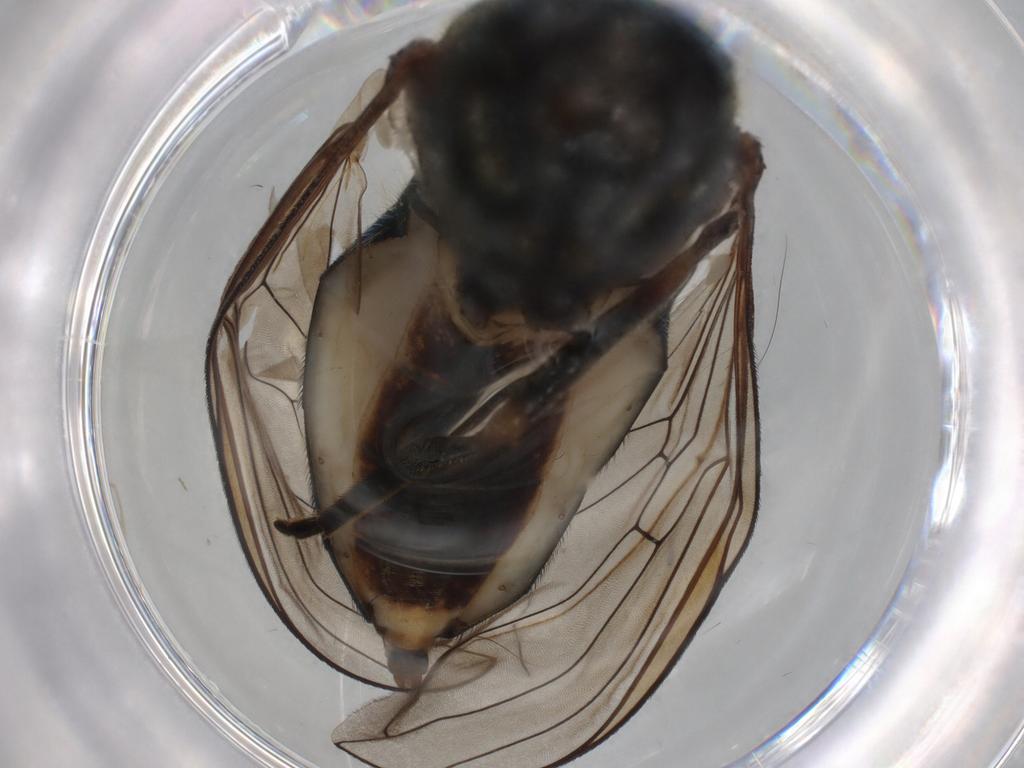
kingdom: Animalia
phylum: Arthropoda
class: Insecta
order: Diptera
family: Syrphidae
